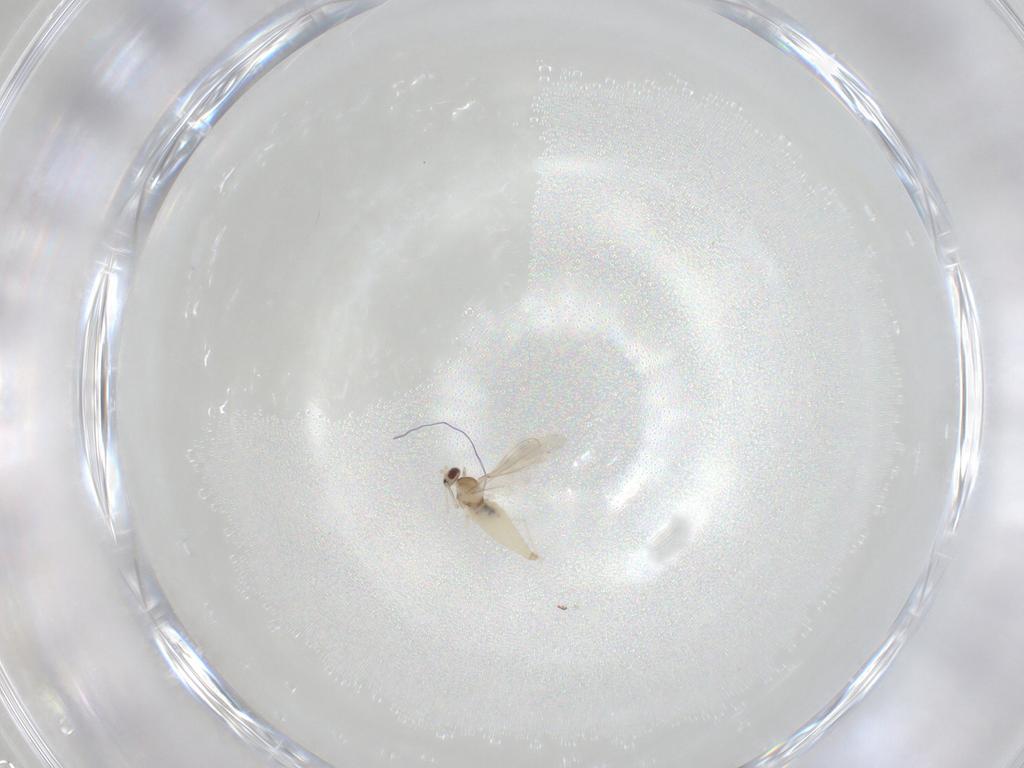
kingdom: Animalia
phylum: Arthropoda
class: Insecta
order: Diptera
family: Cecidomyiidae
